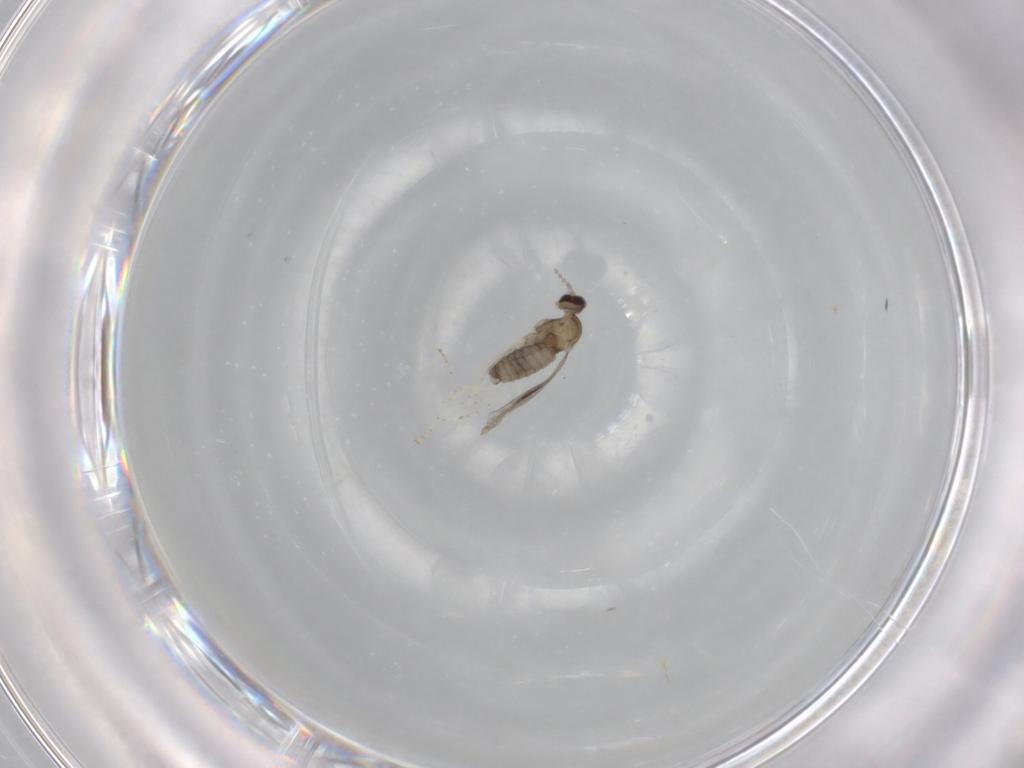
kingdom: Animalia
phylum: Arthropoda
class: Insecta
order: Diptera
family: Cecidomyiidae
